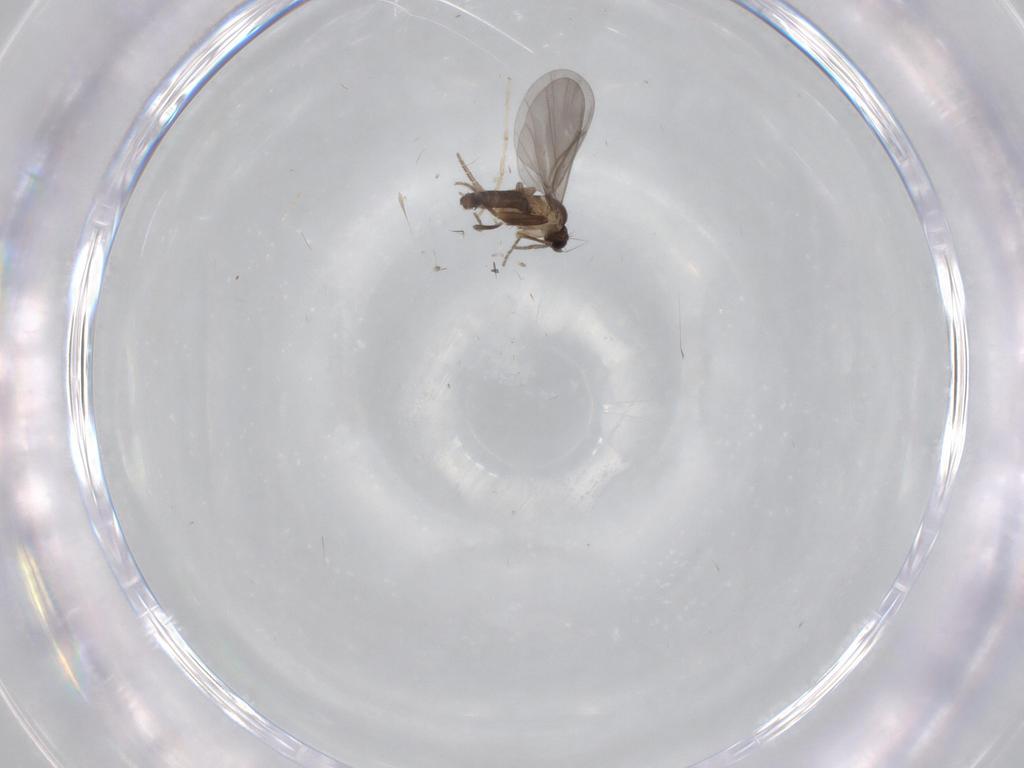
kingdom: Animalia
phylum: Arthropoda
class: Insecta
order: Diptera
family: Phoridae
